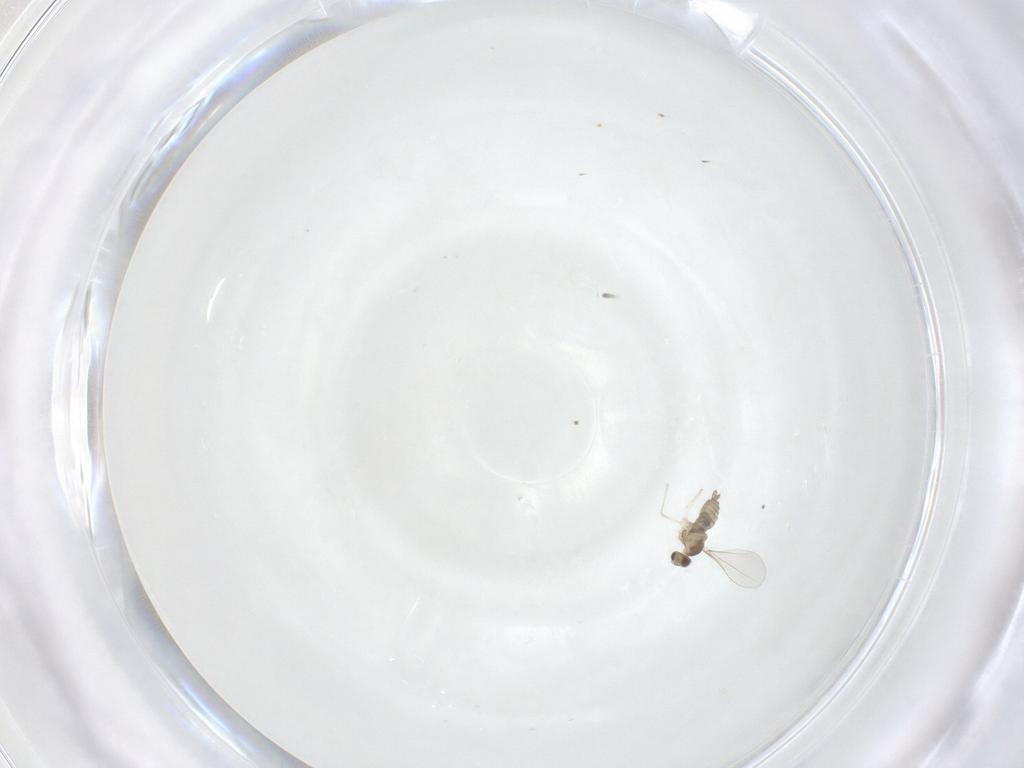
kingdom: Animalia
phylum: Arthropoda
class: Insecta
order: Diptera
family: Cecidomyiidae
